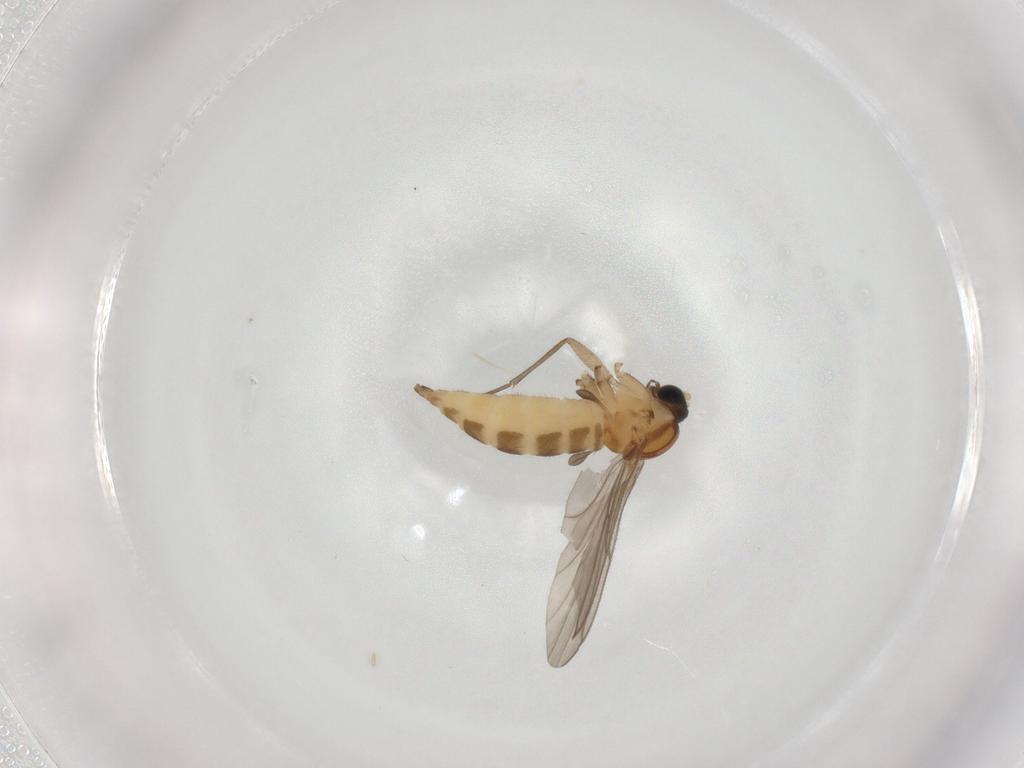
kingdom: Animalia
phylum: Arthropoda
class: Insecta
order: Diptera
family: Sciaridae
